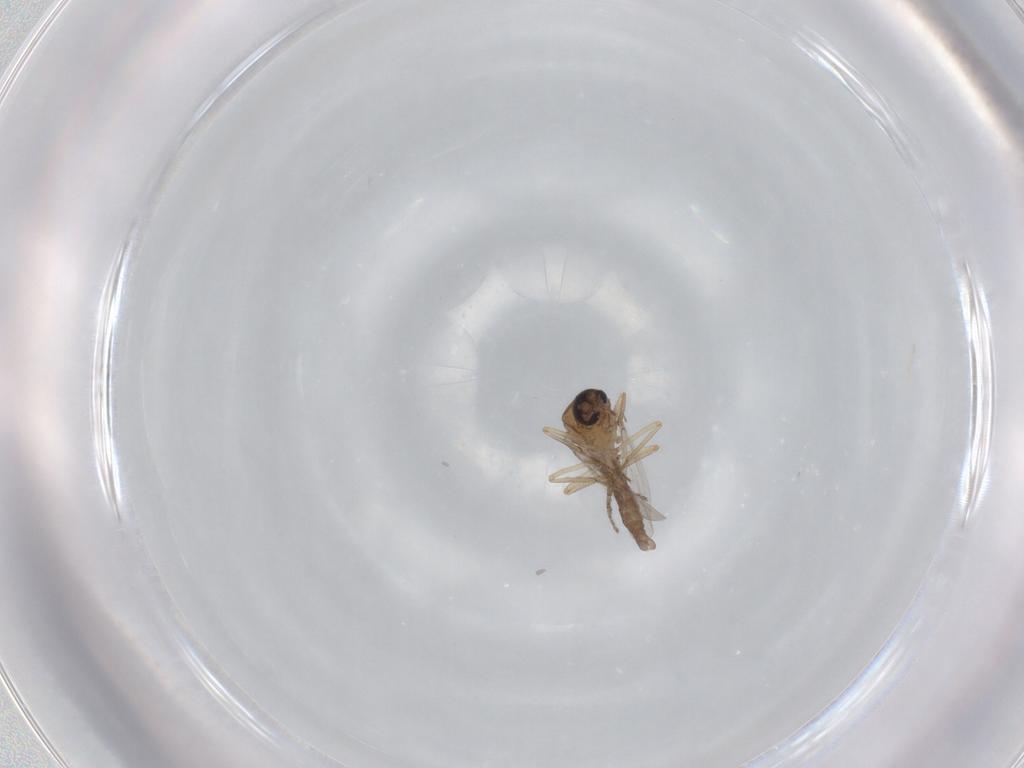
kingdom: Animalia
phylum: Arthropoda
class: Insecta
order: Diptera
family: Ceratopogonidae
